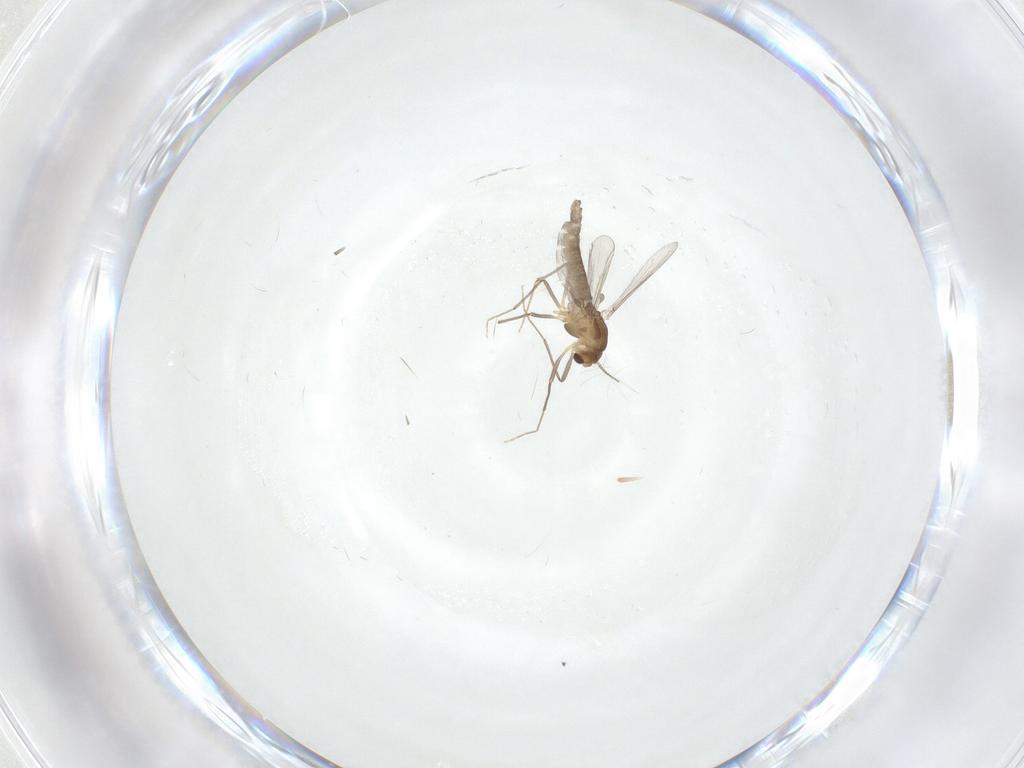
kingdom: Animalia
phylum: Arthropoda
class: Insecta
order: Diptera
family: Chironomidae
